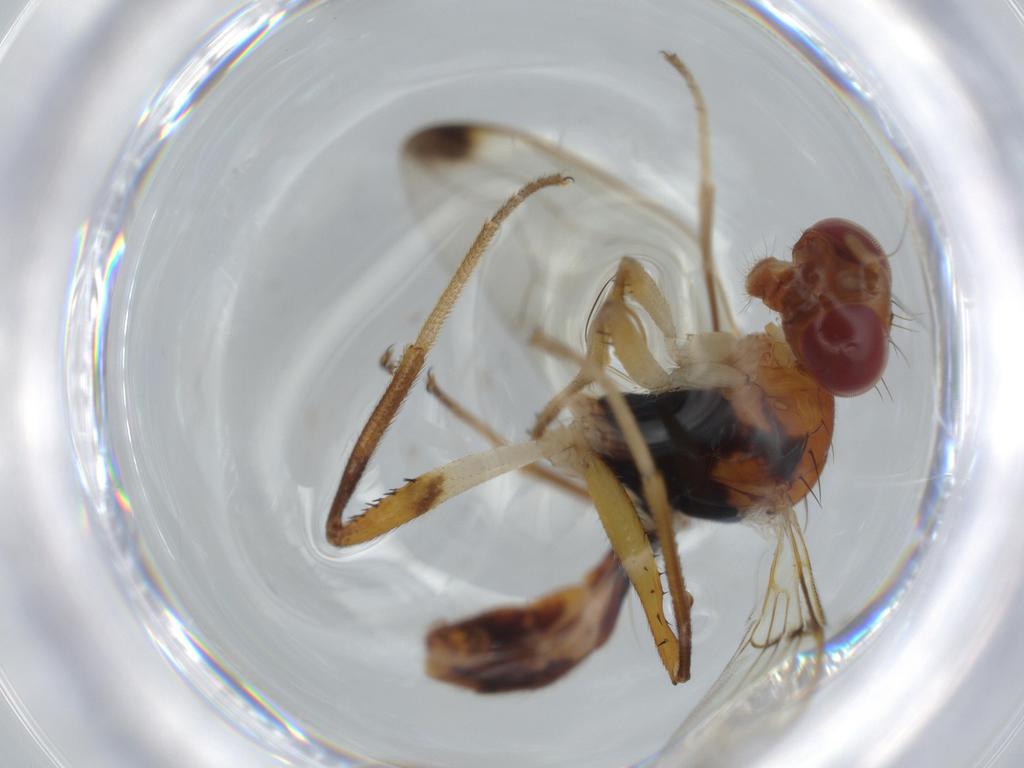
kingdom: Animalia
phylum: Arthropoda
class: Insecta
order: Diptera
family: Richardiidae
